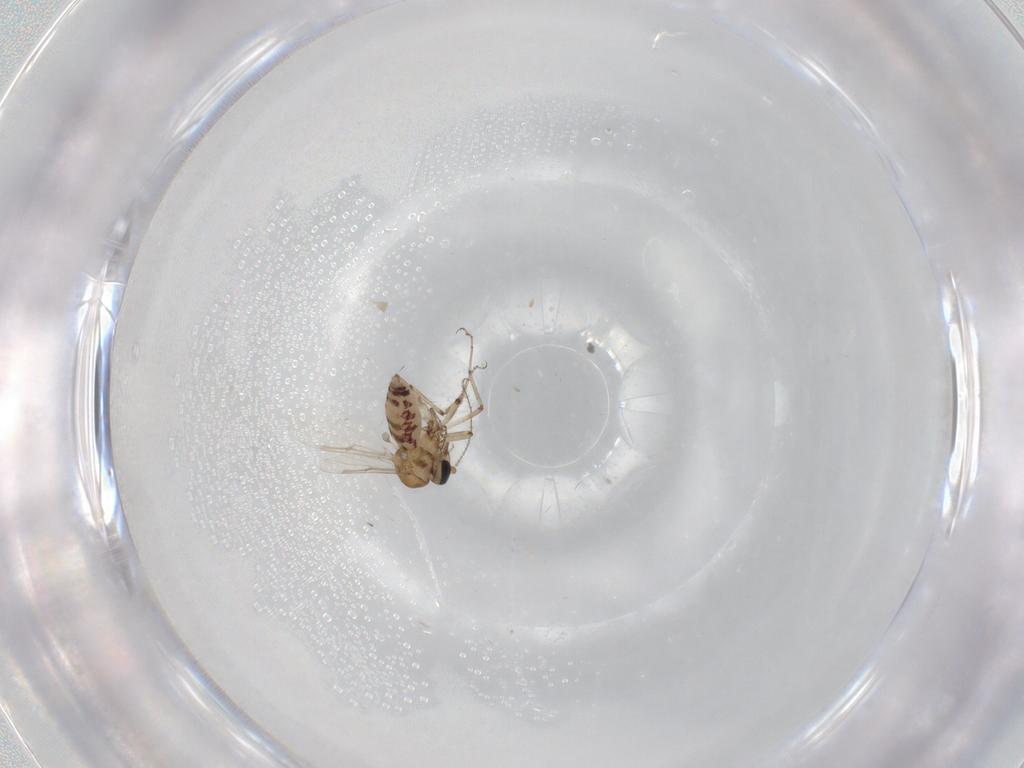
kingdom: Animalia
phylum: Arthropoda
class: Insecta
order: Diptera
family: Ceratopogonidae
